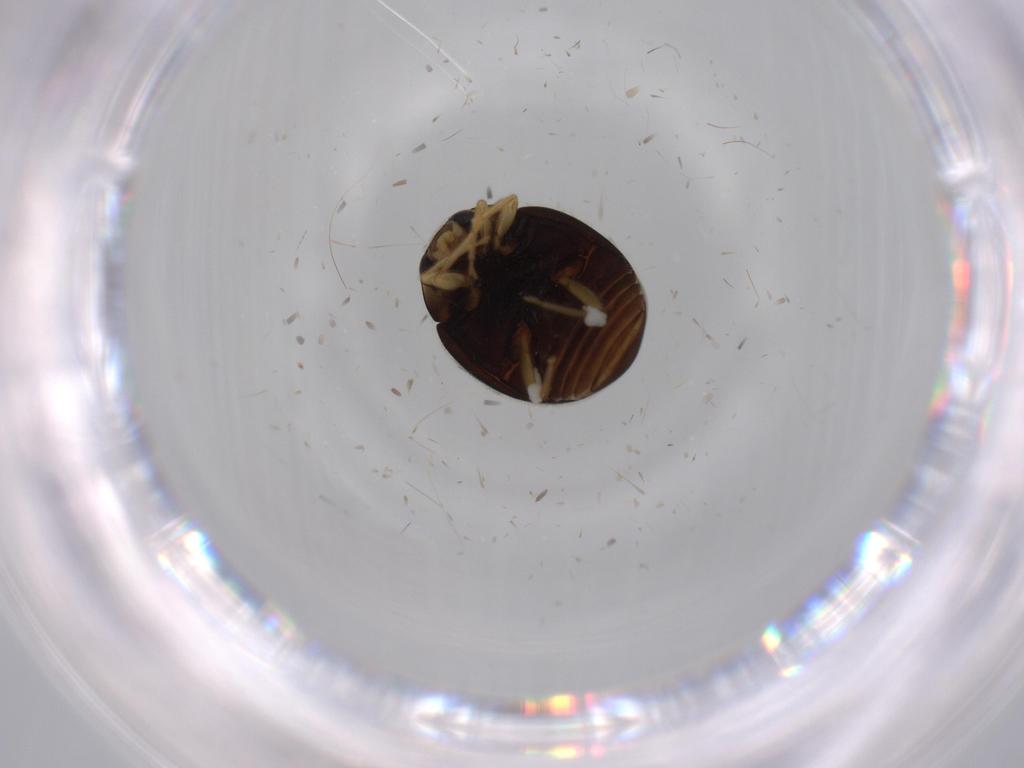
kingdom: Animalia
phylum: Arthropoda
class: Insecta
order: Coleoptera
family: Coccinellidae
